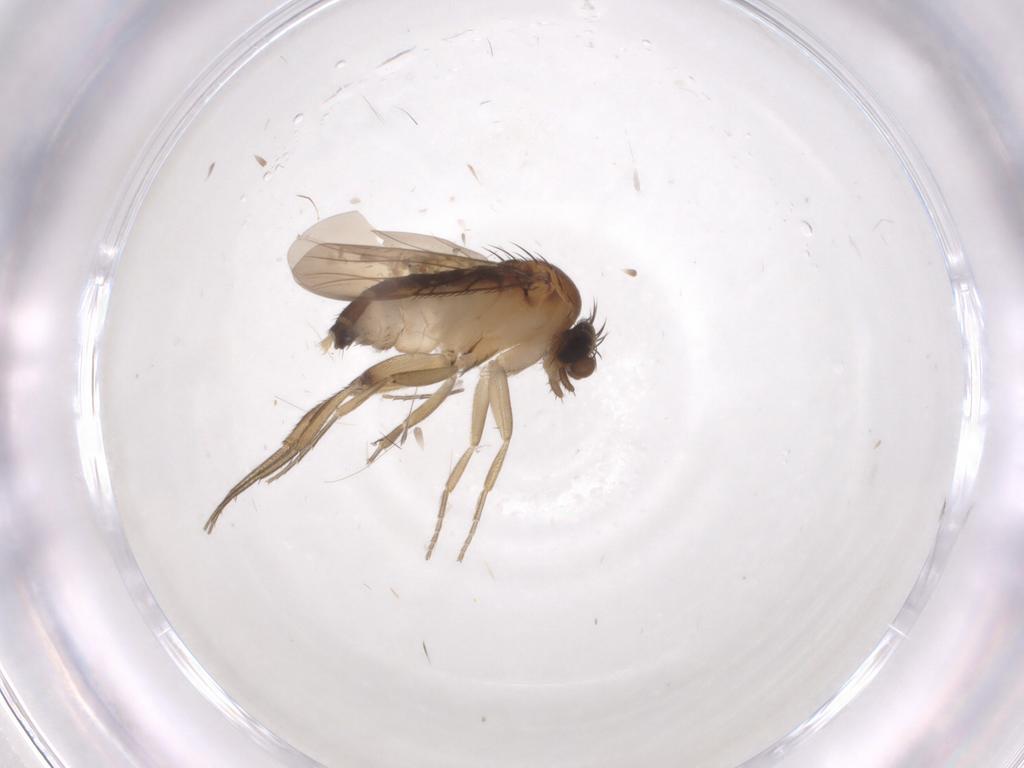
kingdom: Animalia
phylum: Arthropoda
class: Insecta
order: Diptera
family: Phoridae
